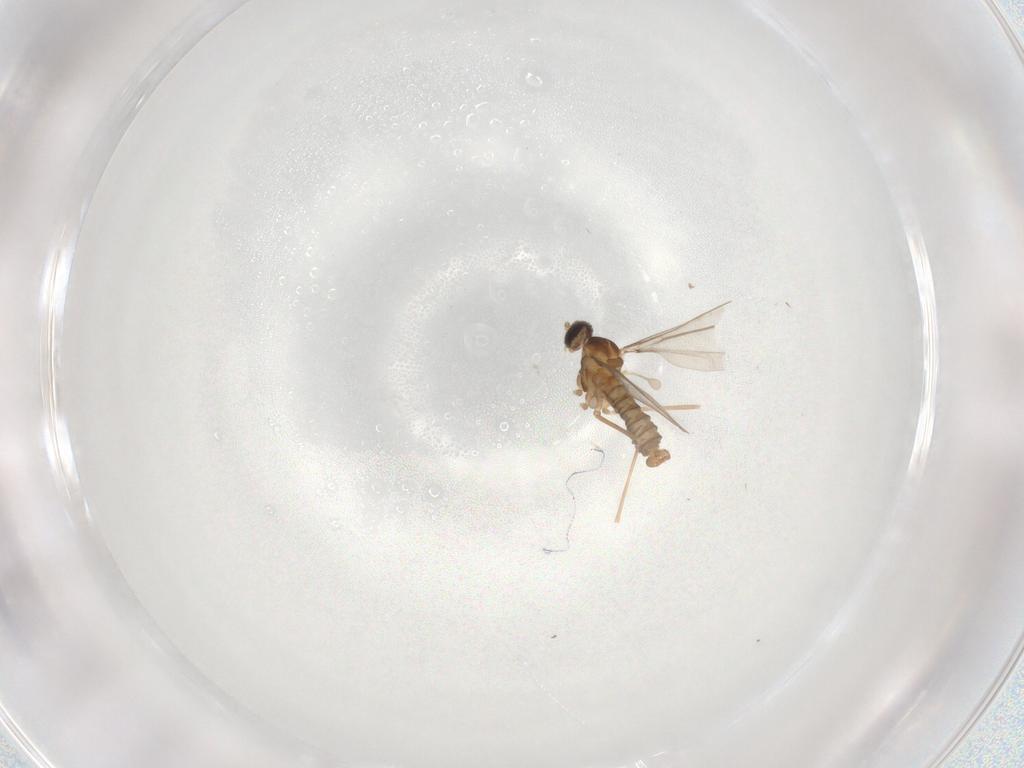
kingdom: Animalia
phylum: Arthropoda
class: Insecta
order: Diptera
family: Cecidomyiidae
